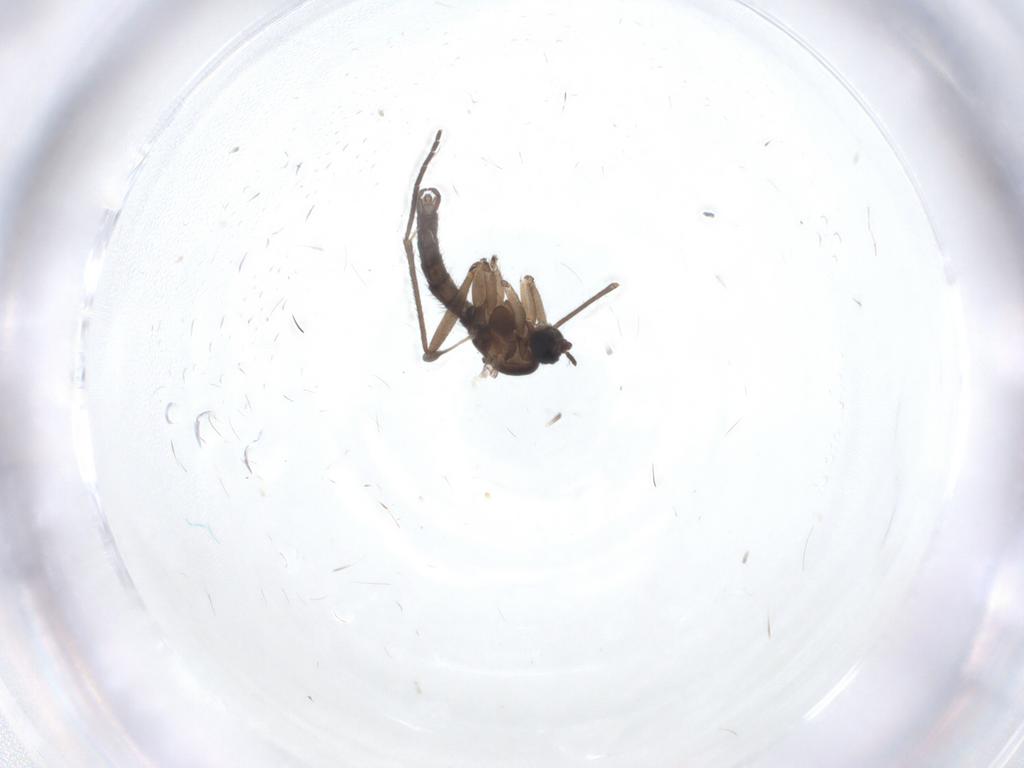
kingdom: Animalia
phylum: Arthropoda
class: Insecta
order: Diptera
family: Sciaridae
